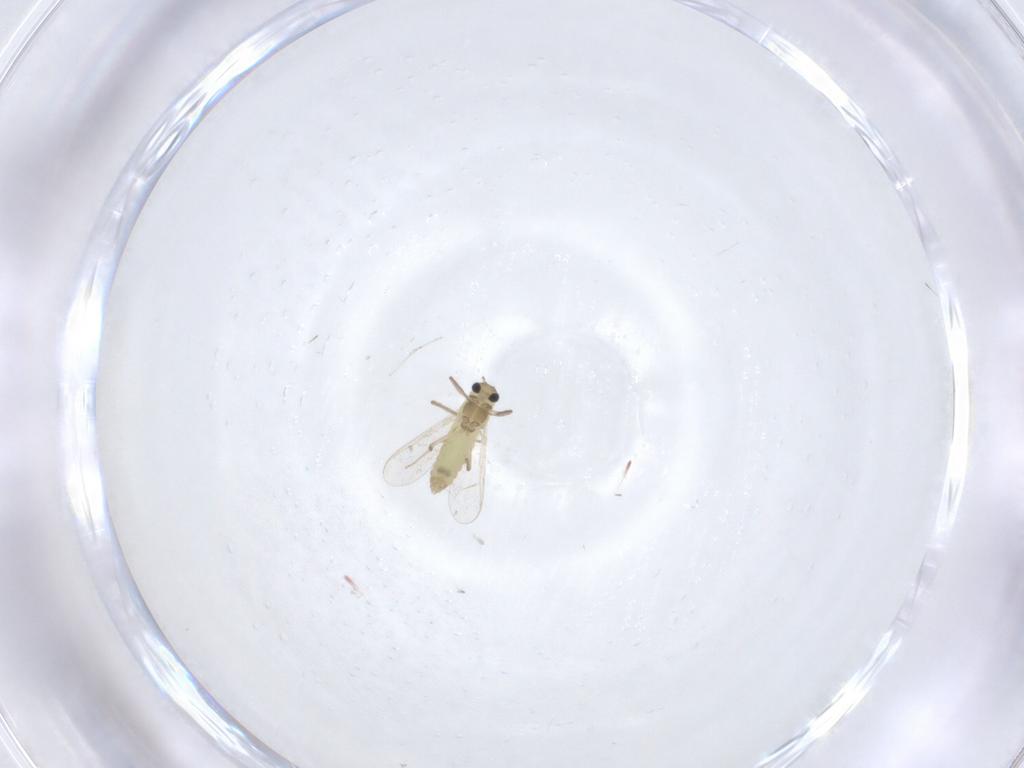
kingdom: Animalia
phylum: Arthropoda
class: Insecta
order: Diptera
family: Chironomidae
